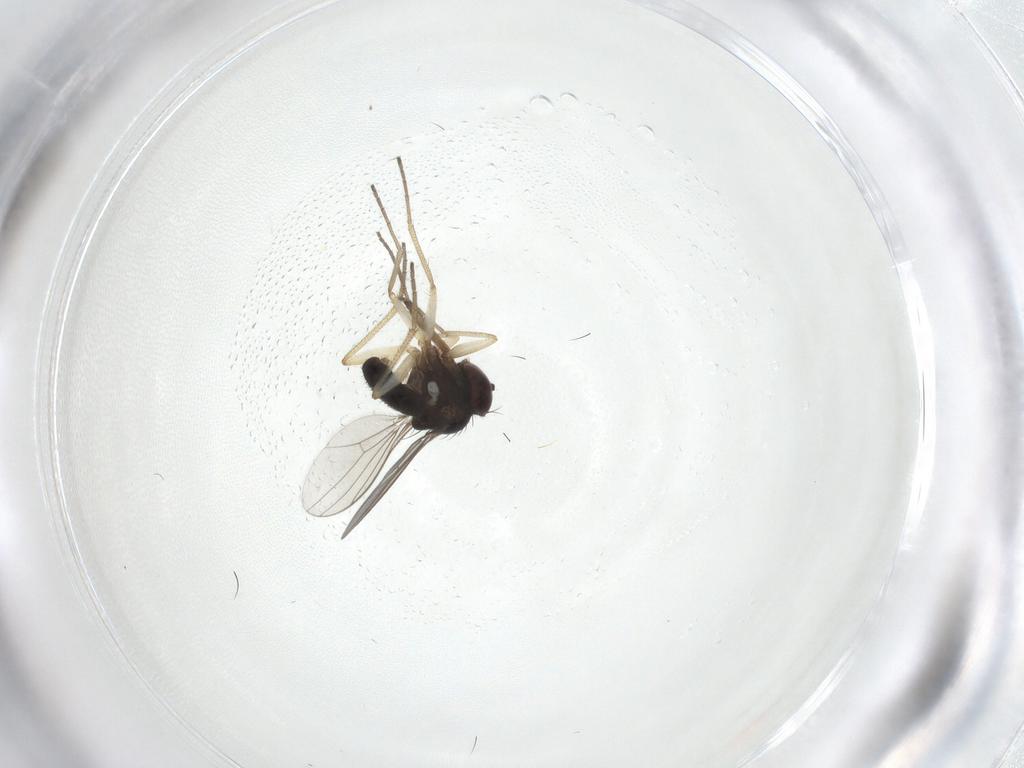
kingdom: Animalia
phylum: Arthropoda
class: Insecta
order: Diptera
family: Dolichopodidae
